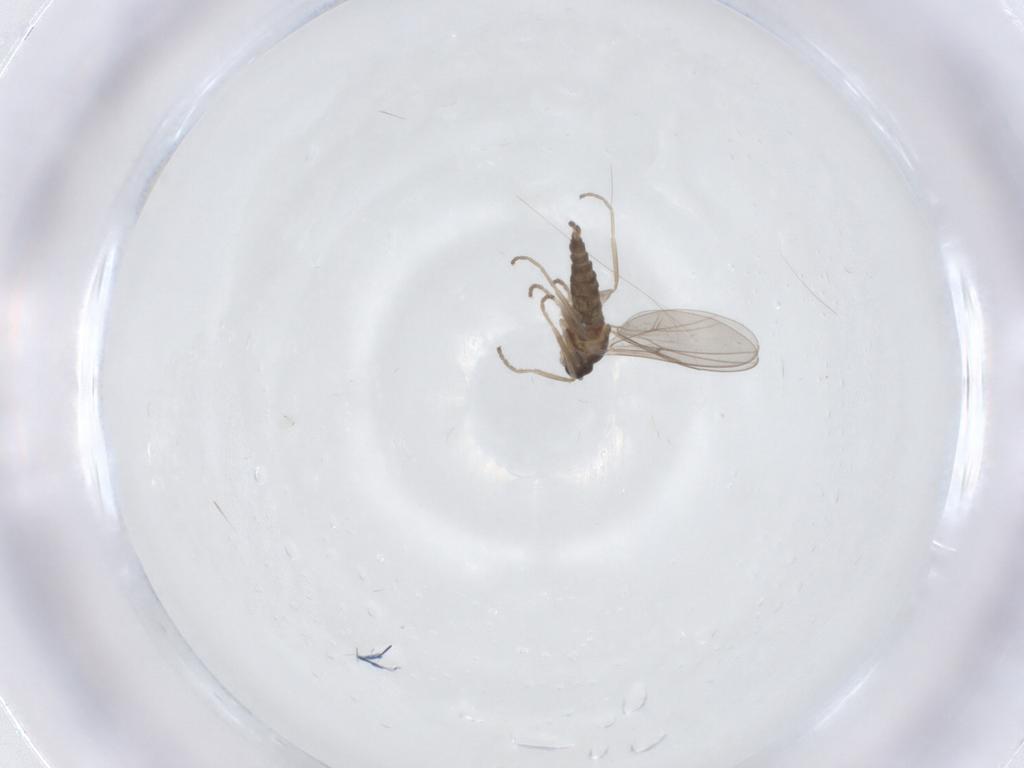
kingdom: Animalia
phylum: Arthropoda
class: Insecta
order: Diptera
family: Cecidomyiidae
